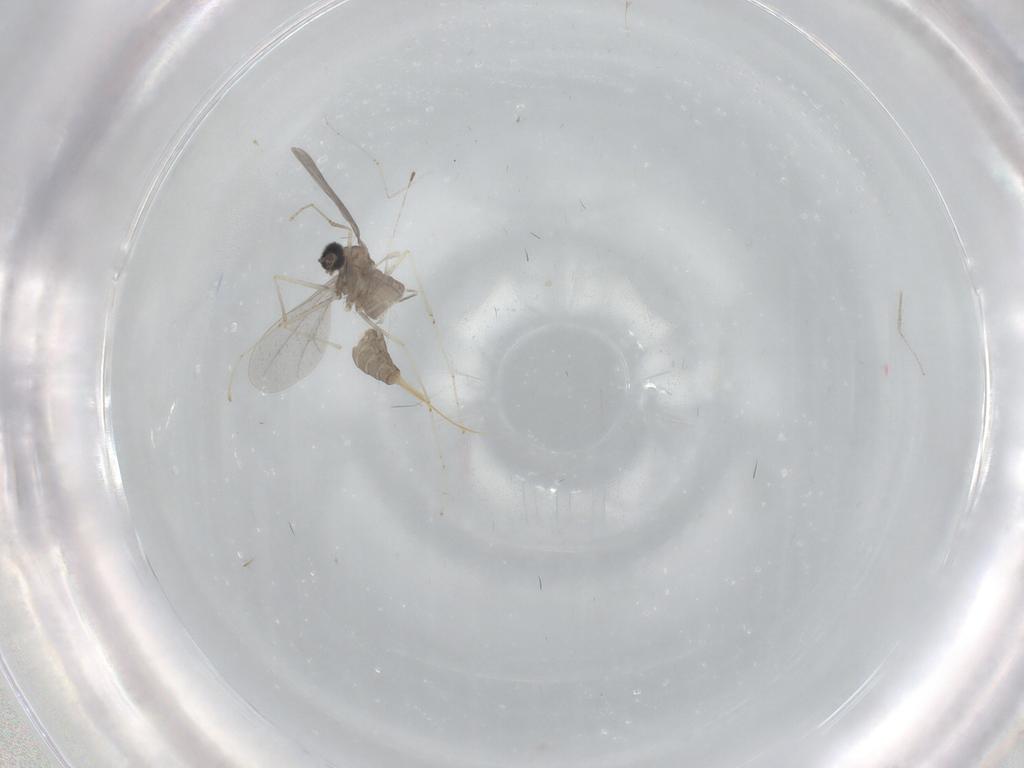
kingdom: Animalia
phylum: Arthropoda
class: Insecta
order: Diptera
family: Cecidomyiidae
